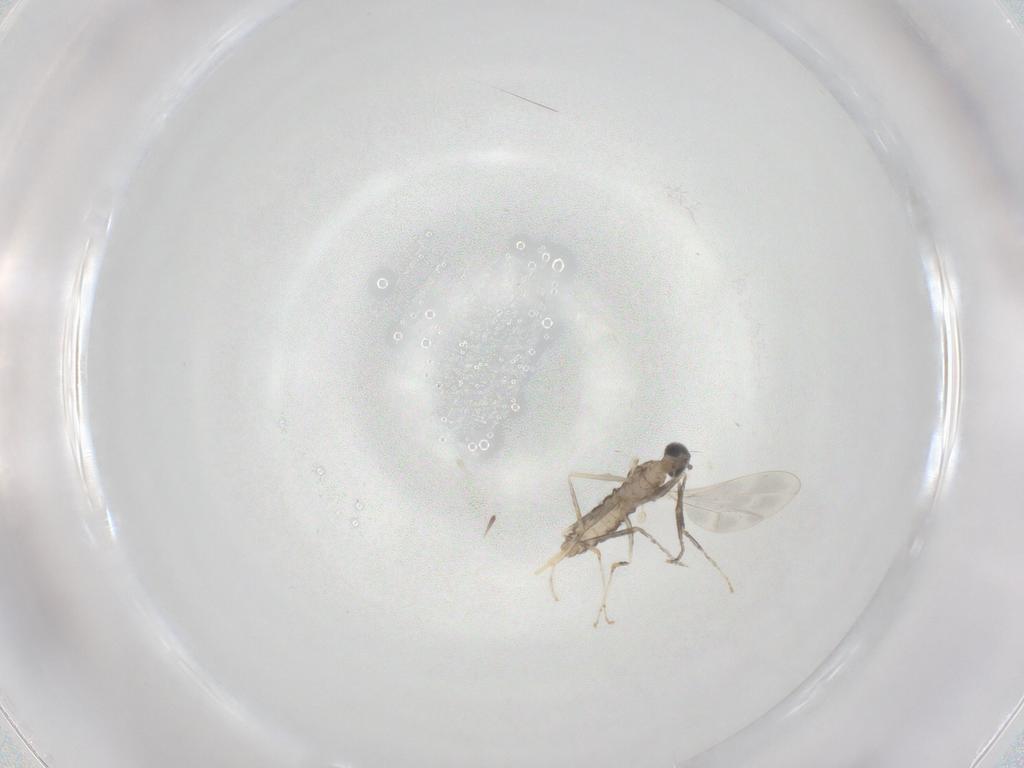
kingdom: Animalia
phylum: Arthropoda
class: Insecta
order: Diptera
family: Cecidomyiidae
